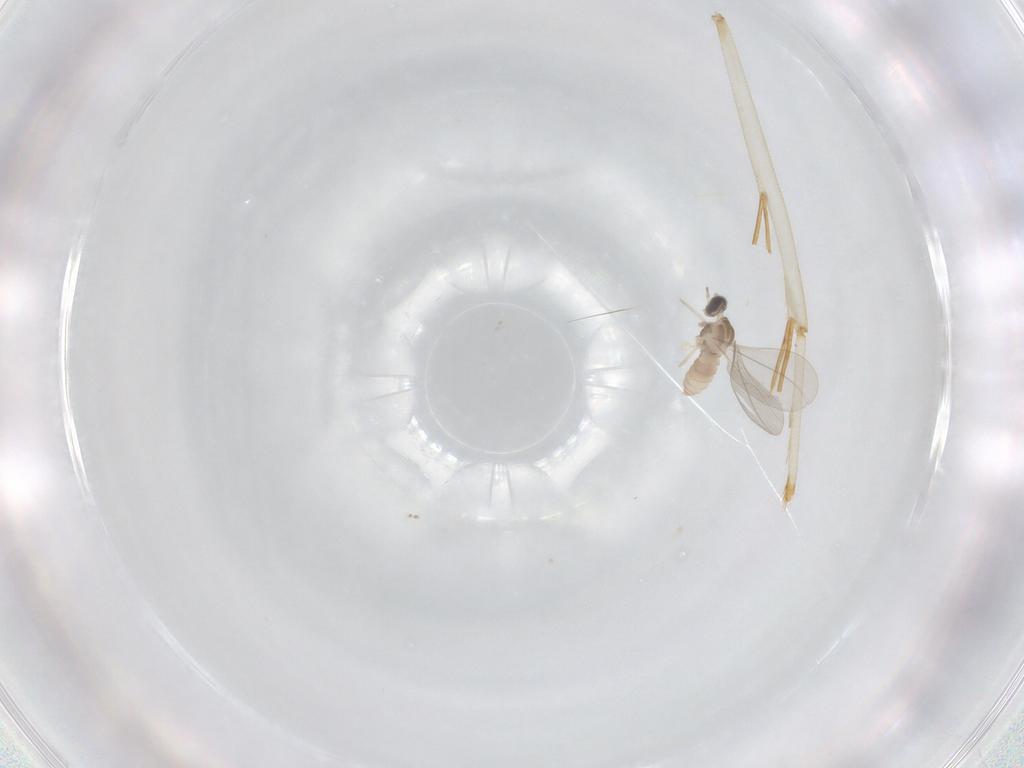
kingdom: Animalia
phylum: Arthropoda
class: Insecta
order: Diptera
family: Cecidomyiidae
